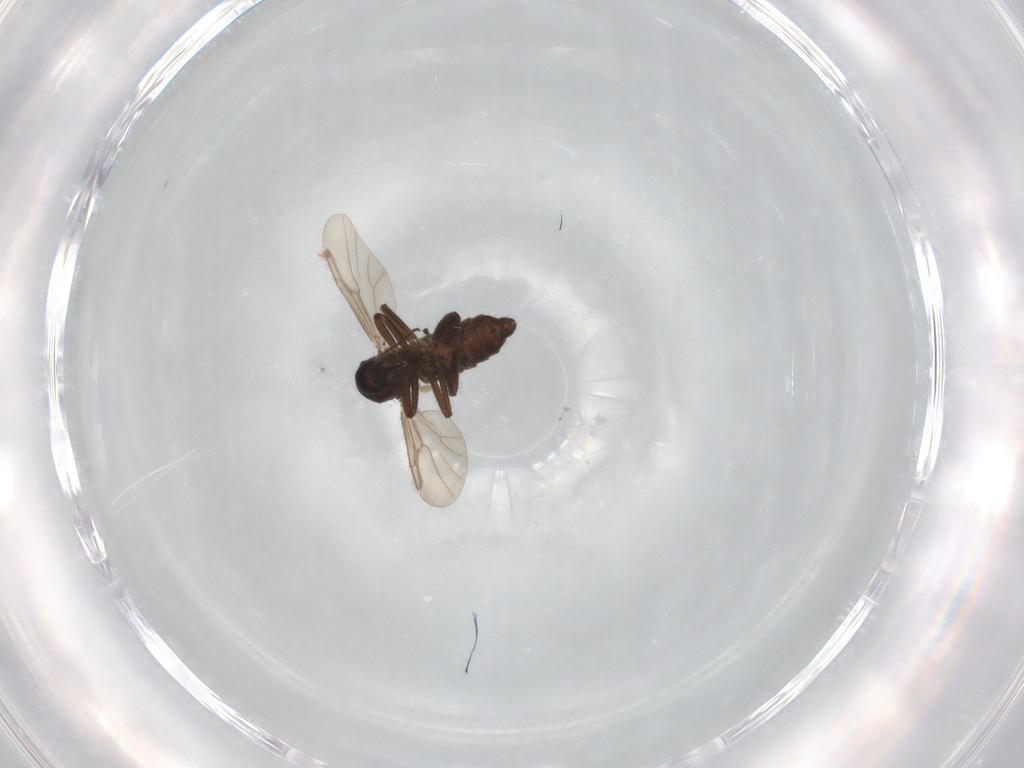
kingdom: Animalia
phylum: Arthropoda
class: Insecta
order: Diptera
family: Ceratopogonidae
